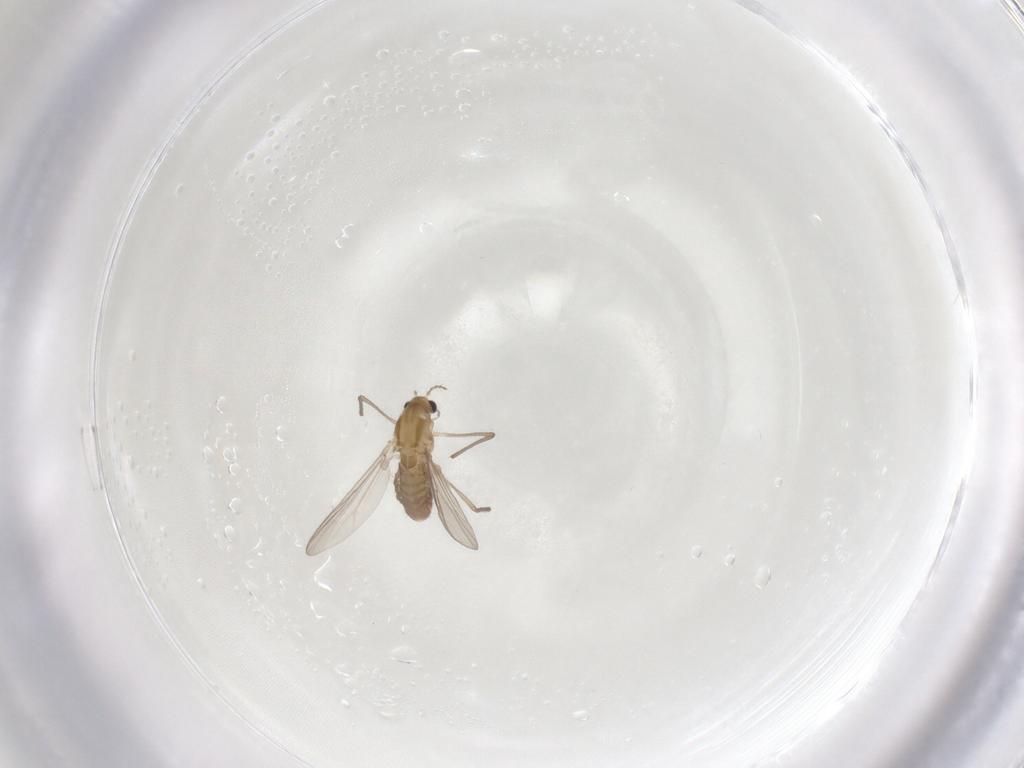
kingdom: Animalia
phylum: Arthropoda
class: Insecta
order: Diptera
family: Chironomidae
